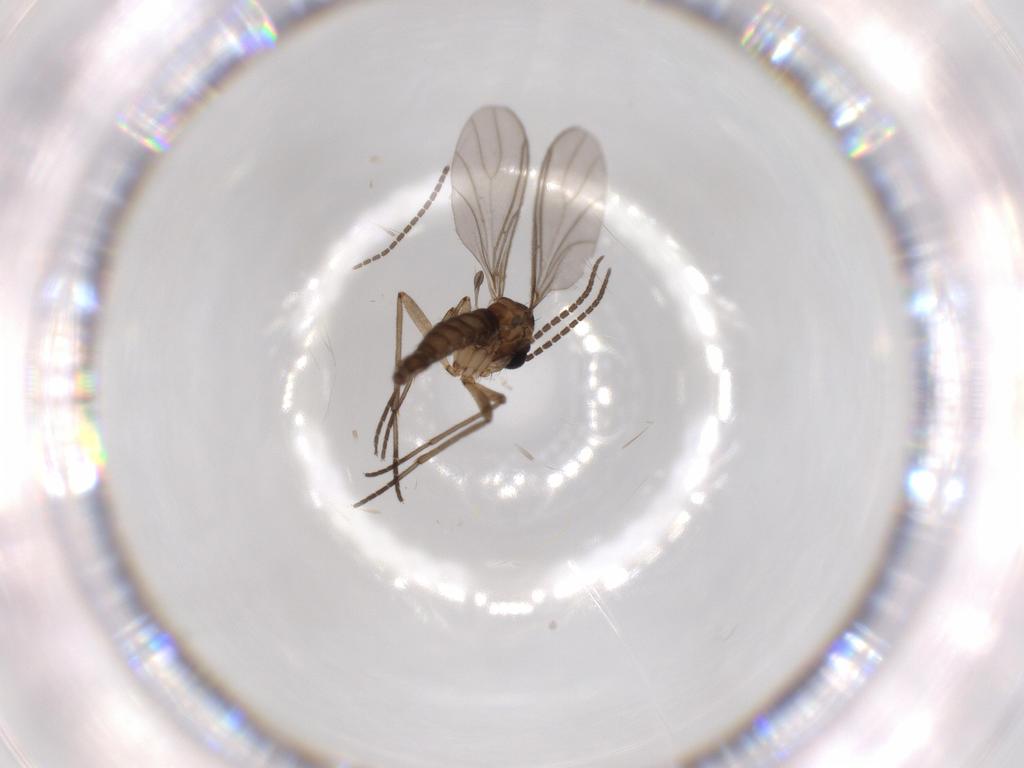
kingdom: Animalia
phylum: Arthropoda
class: Insecta
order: Diptera
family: Sciaridae
